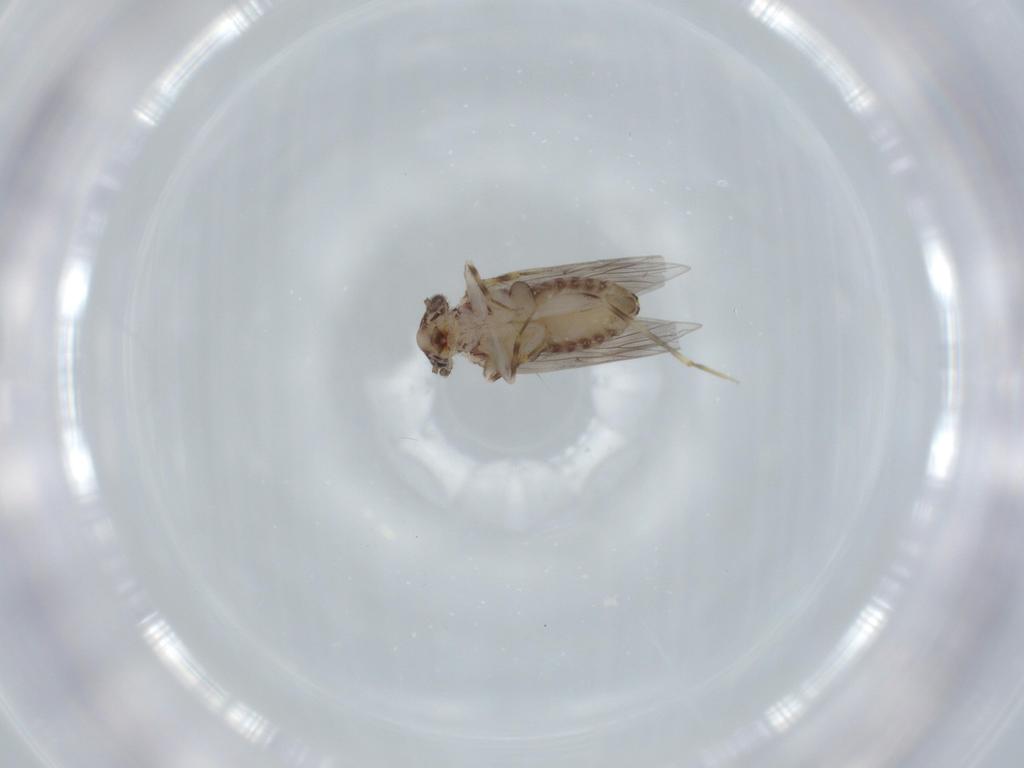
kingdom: Animalia
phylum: Arthropoda
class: Insecta
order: Psocodea
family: Lepidopsocidae
